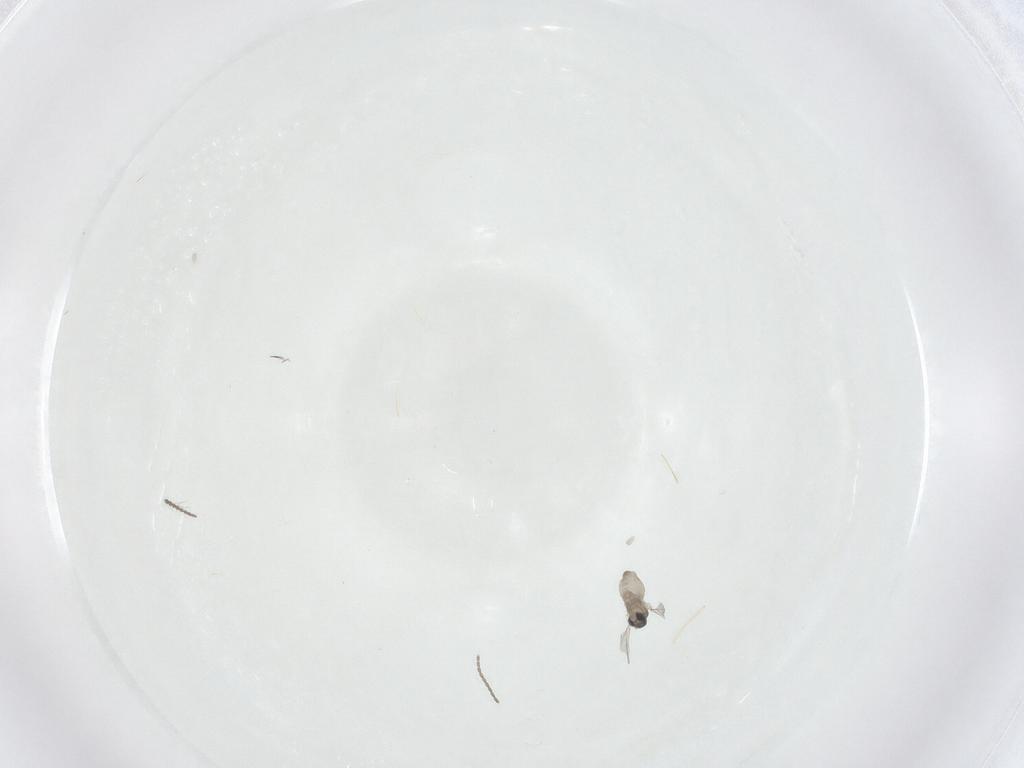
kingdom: Animalia
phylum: Arthropoda
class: Insecta
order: Diptera
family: Cecidomyiidae
